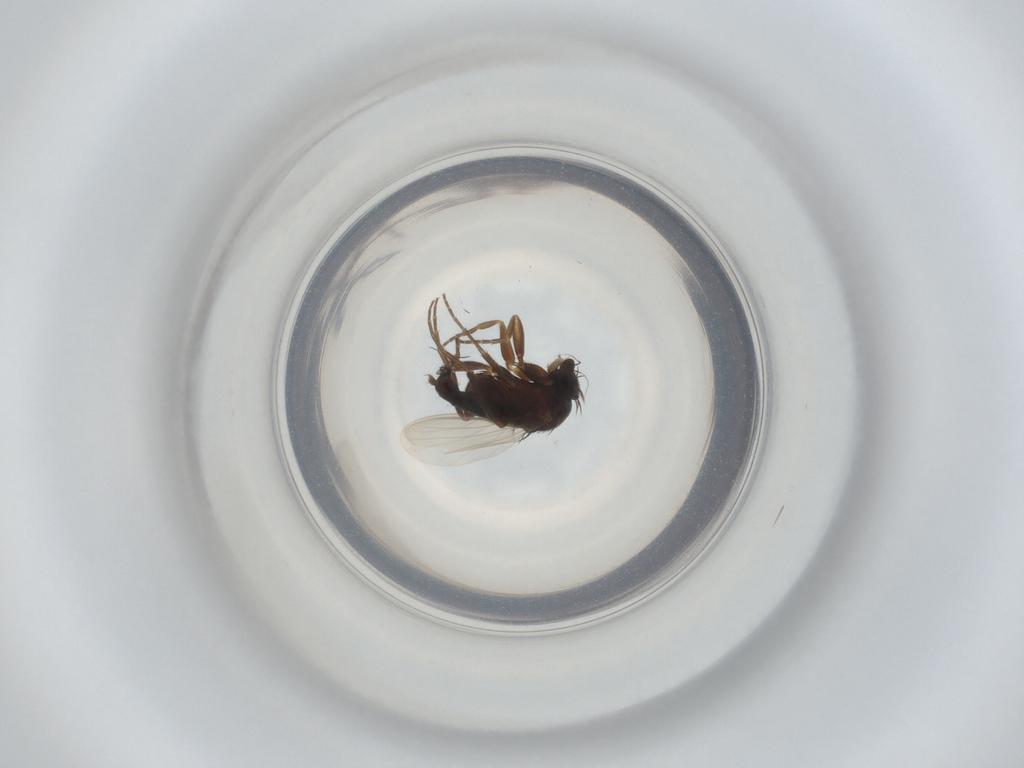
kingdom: Animalia
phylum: Arthropoda
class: Insecta
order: Diptera
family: Phoridae
